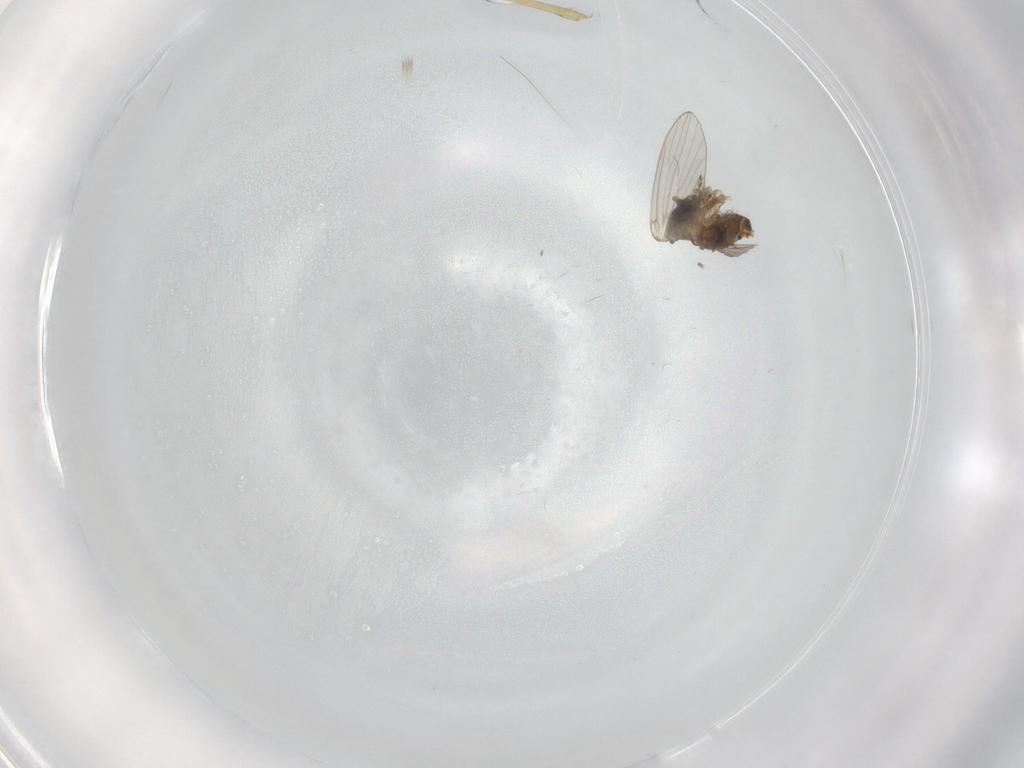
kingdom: Animalia
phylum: Arthropoda
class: Insecta
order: Diptera
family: Psychodidae
